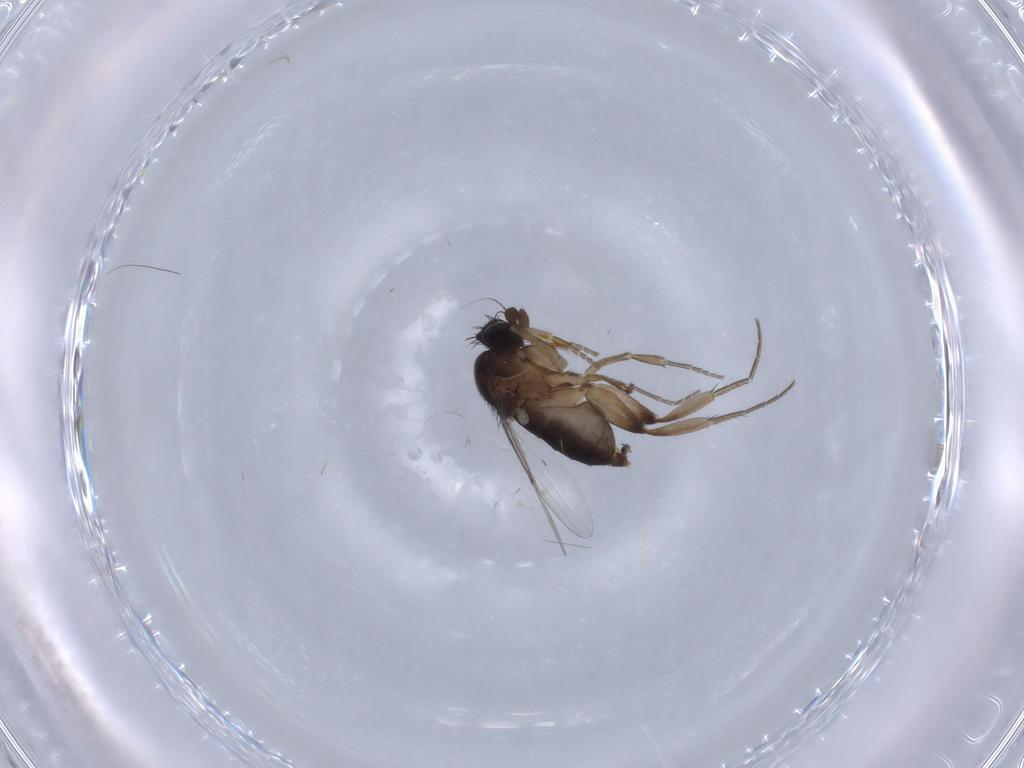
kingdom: Animalia
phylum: Arthropoda
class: Insecta
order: Diptera
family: Phoridae
